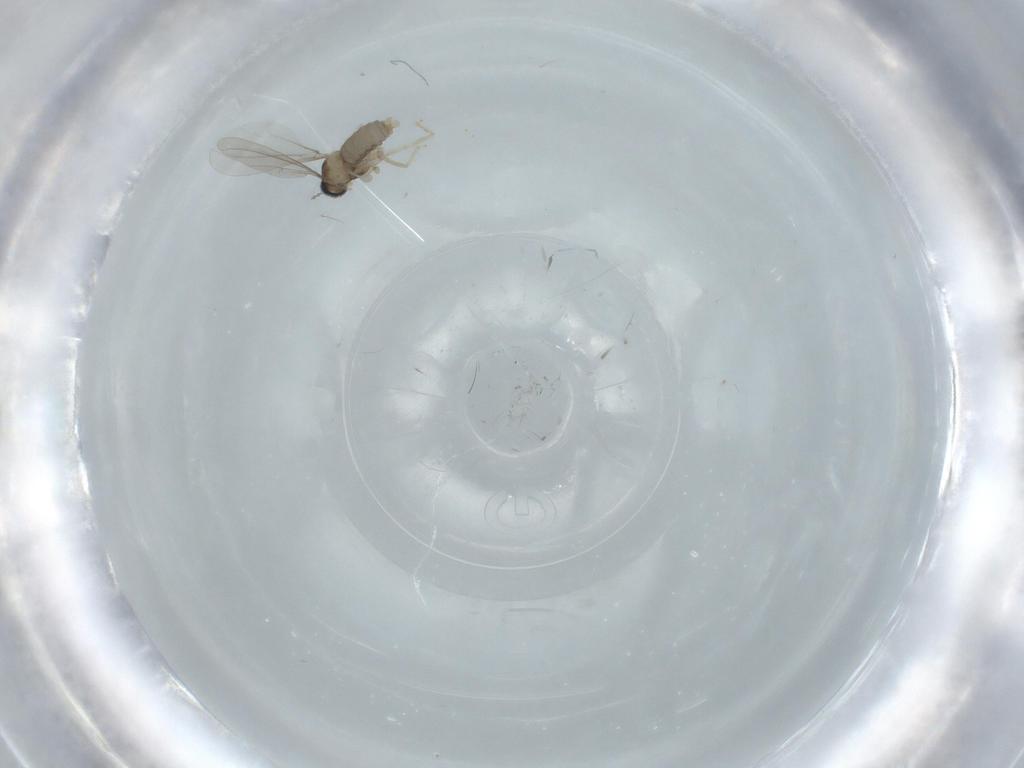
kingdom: Animalia
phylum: Arthropoda
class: Insecta
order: Diptera
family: Cecidomyiidae
